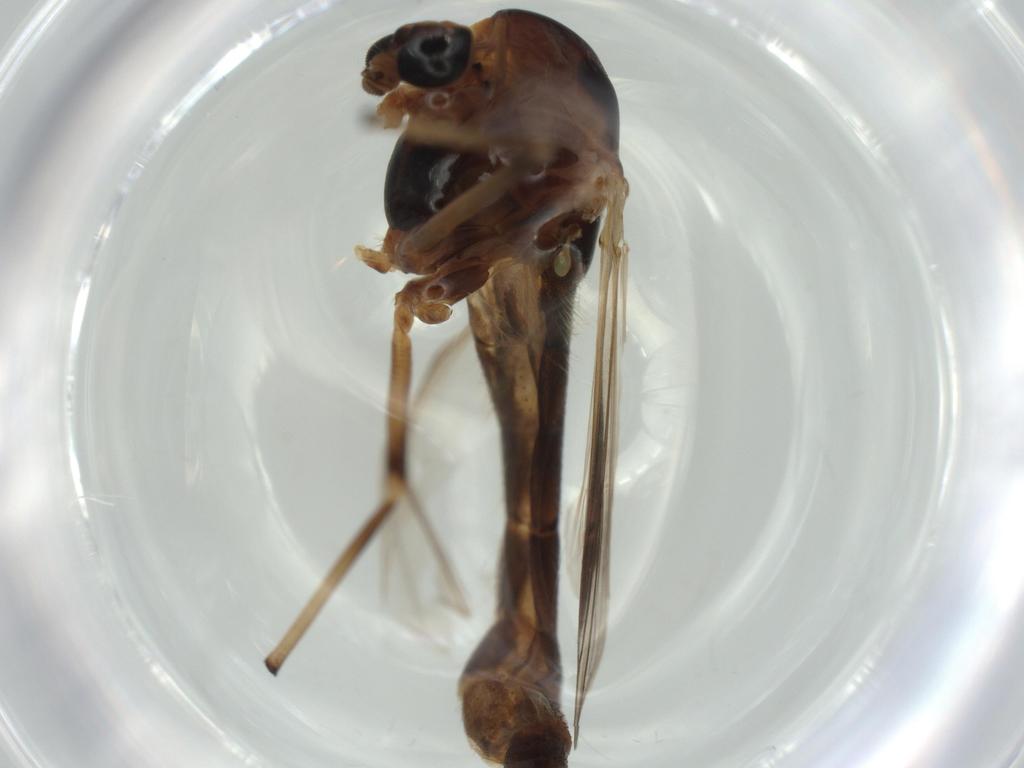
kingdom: Animalia
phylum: Arthropoda
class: Insecta
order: Diptera
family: Chironomidae
